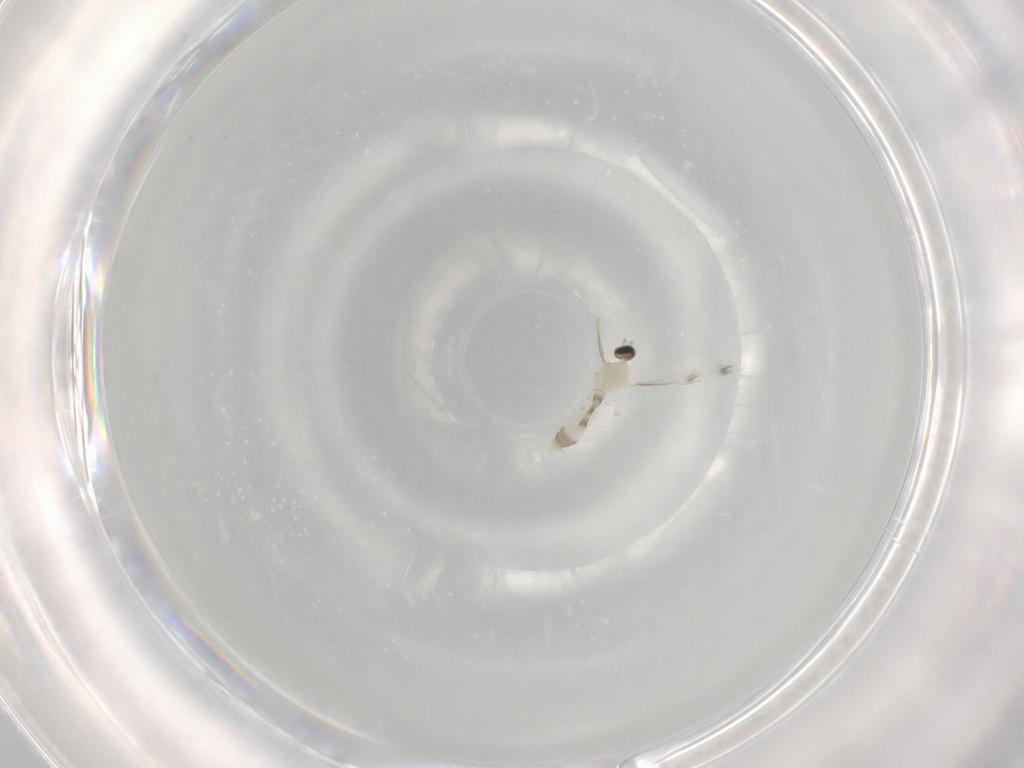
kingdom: Animalia
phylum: Arthropoda
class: Insecta
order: Diptera
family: Cecidomyiidae
